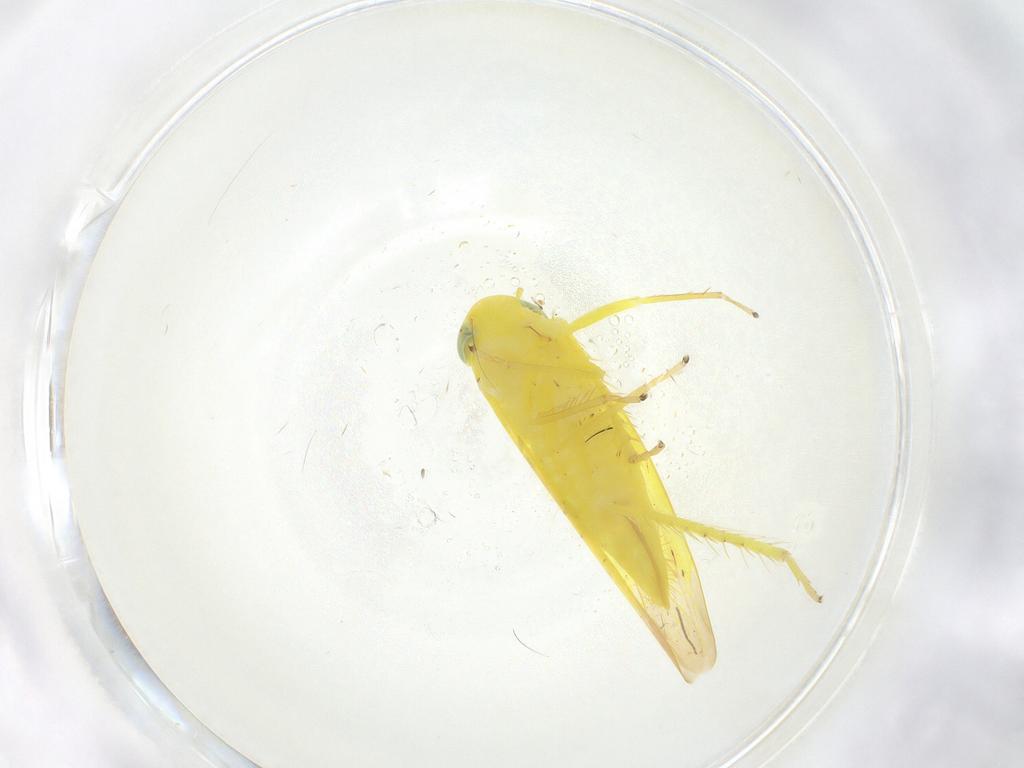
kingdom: Animalia
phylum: Arthropoda
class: Insecta
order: Hemiptera
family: Cicadellidae
